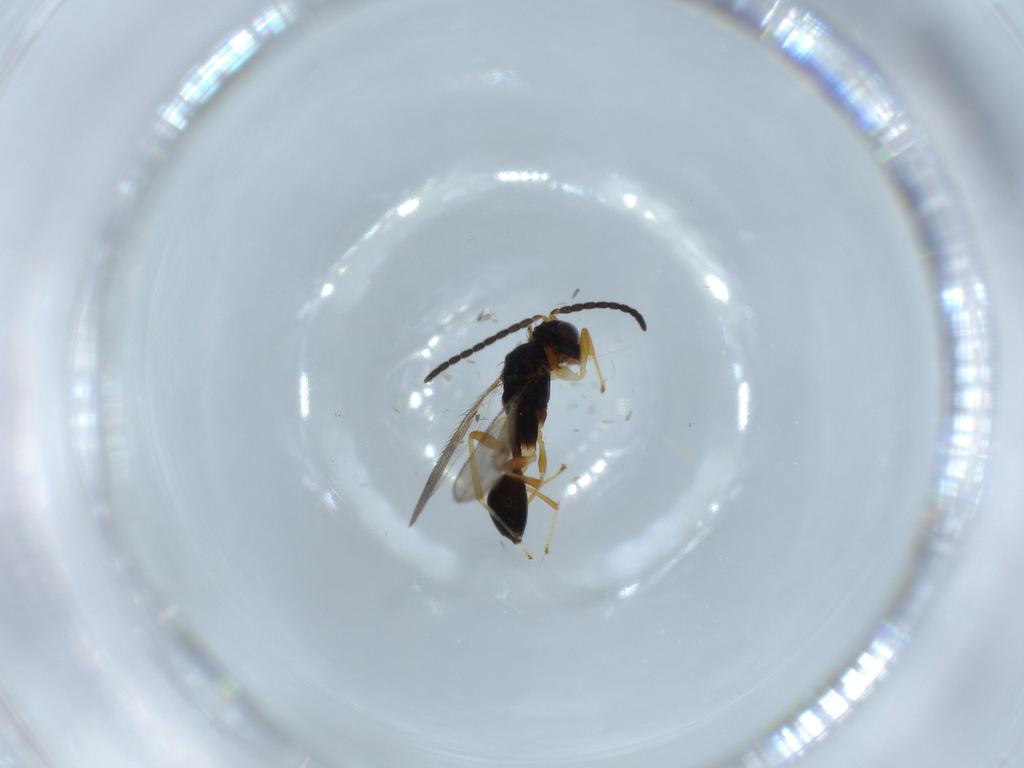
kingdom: Animalia
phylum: Arthropoda
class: Insecta
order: Hymenoptera
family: Diparidae
